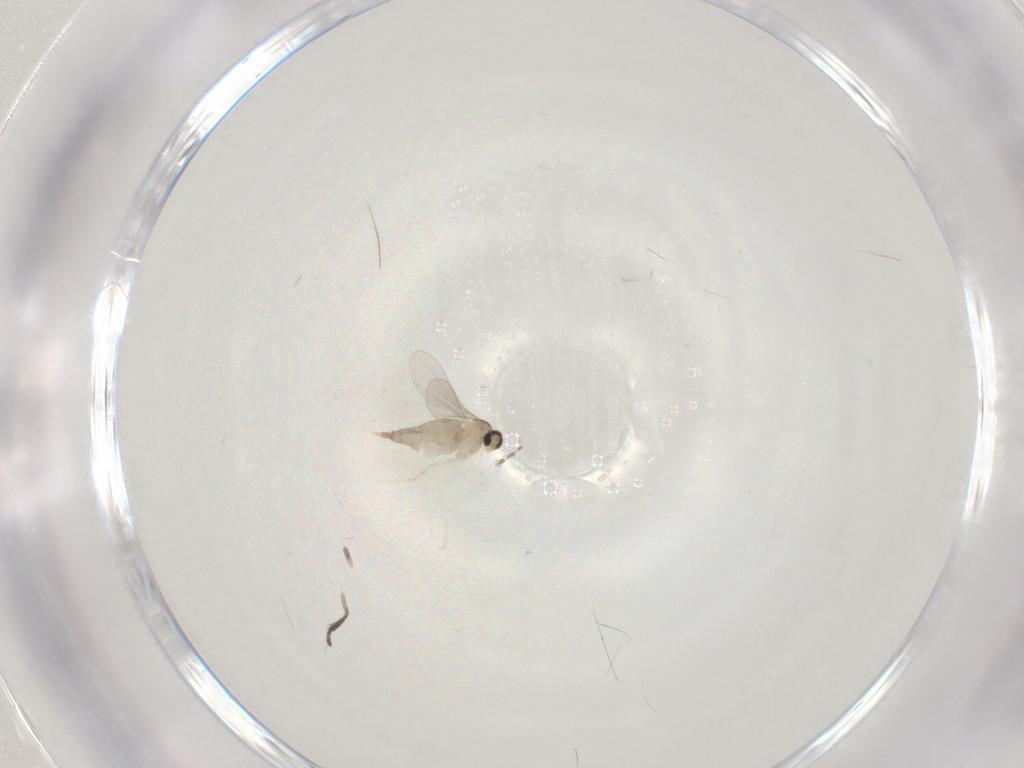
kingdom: Animalia
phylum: Arthropoda
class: Insecta
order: Diptera
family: Psychodidae
